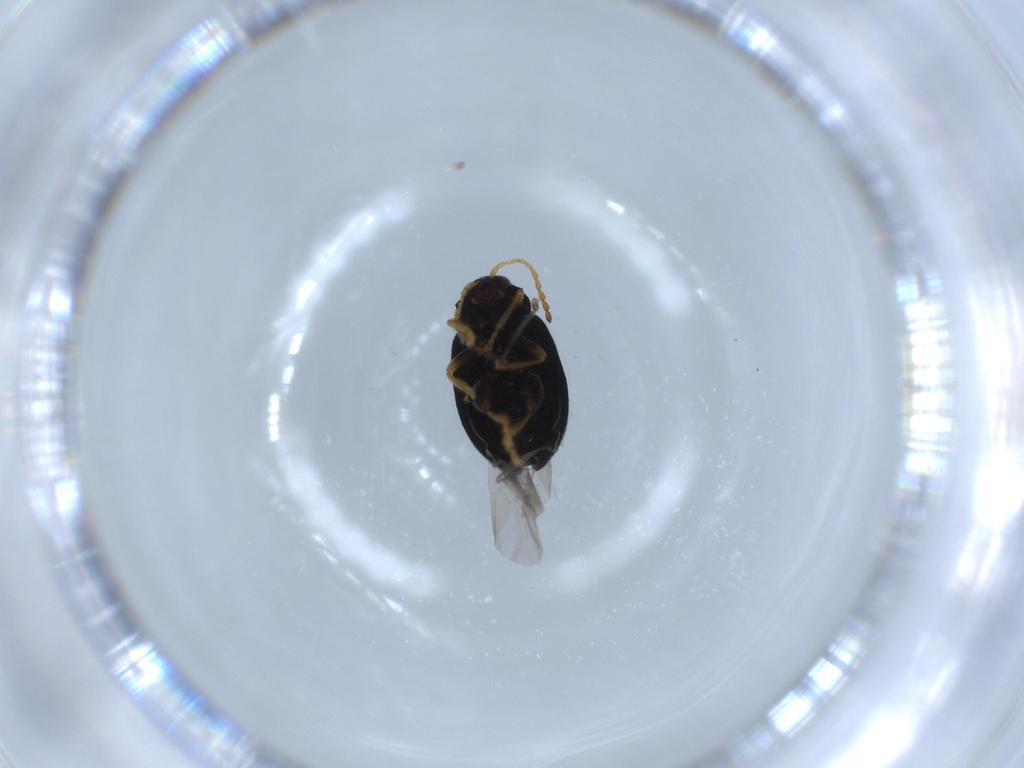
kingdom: Animalia
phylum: Arthropoda
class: Insecta
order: Coleoptera
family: Chrysomelidae
